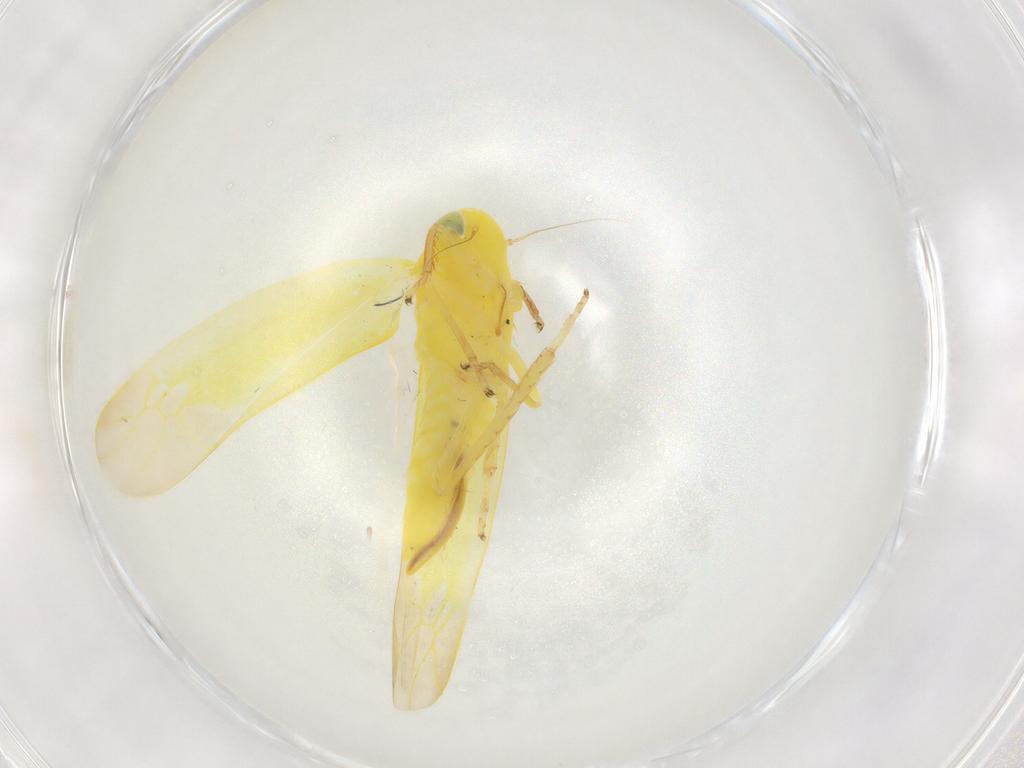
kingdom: Animalia
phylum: Arthropoda
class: Insecta
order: Hemiptera
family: Cicadellidae
